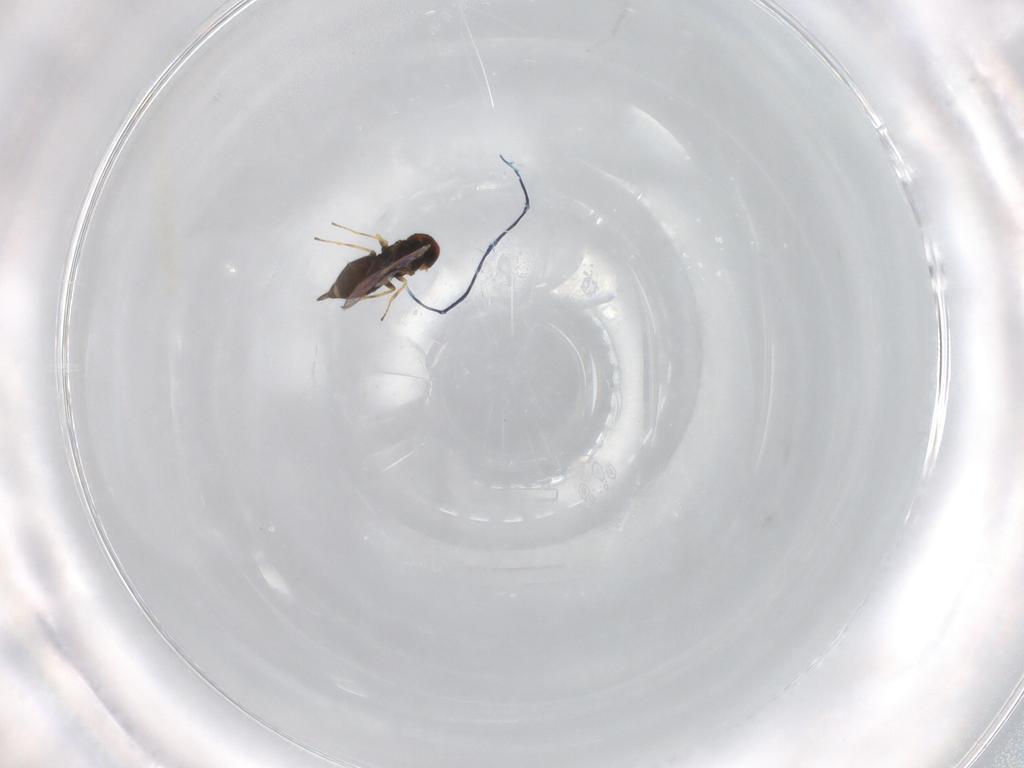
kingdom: Animalia
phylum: Arthropoda
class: Insecta
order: Hymenoptera
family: Eulophidae
